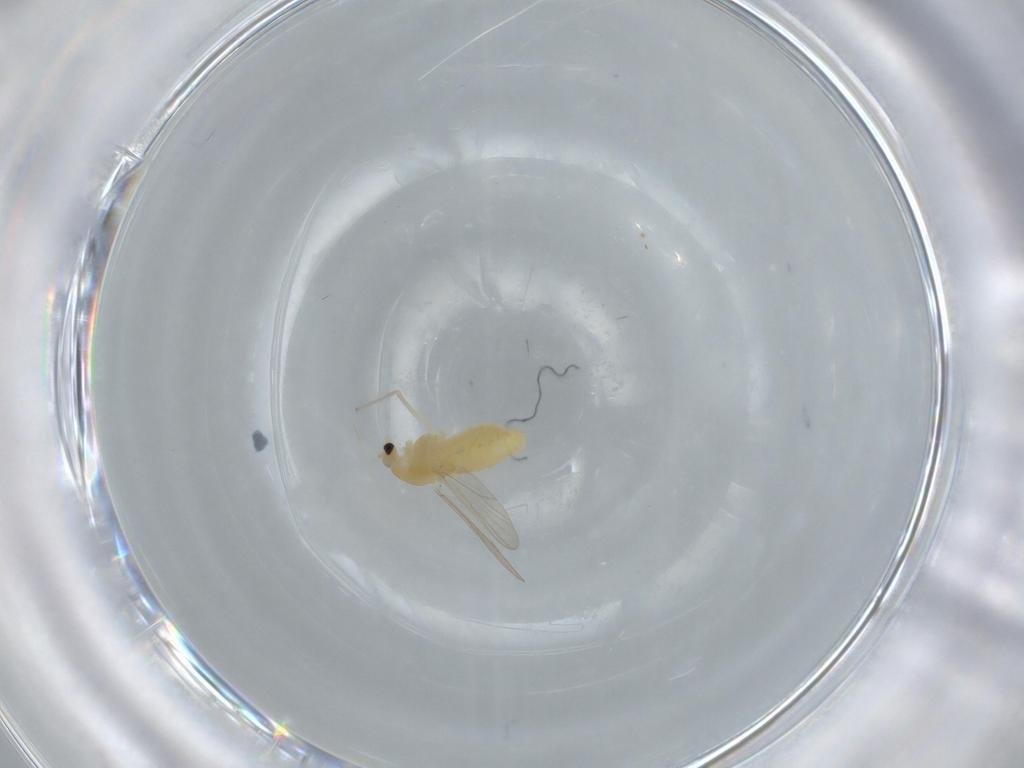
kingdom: Animalia
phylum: Arthropoda
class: Insecta
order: Diptera
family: Chironomidae
